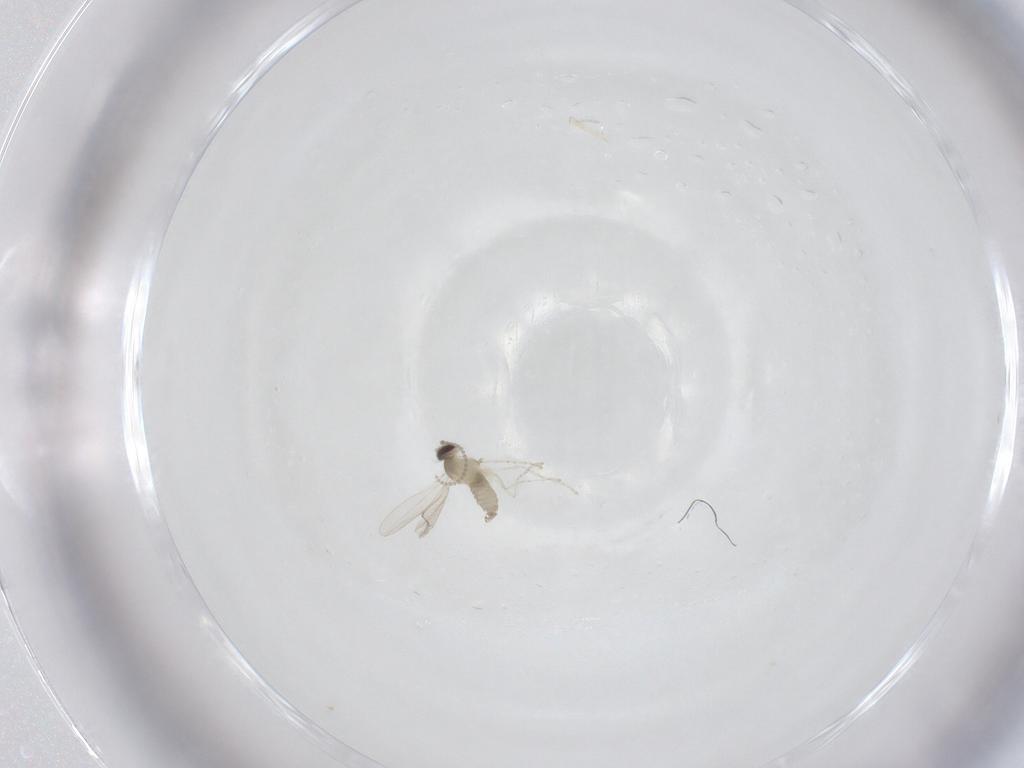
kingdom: Animalia
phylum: Arthropoda
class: Insecta
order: Diptera
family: Cecidomyiidae
